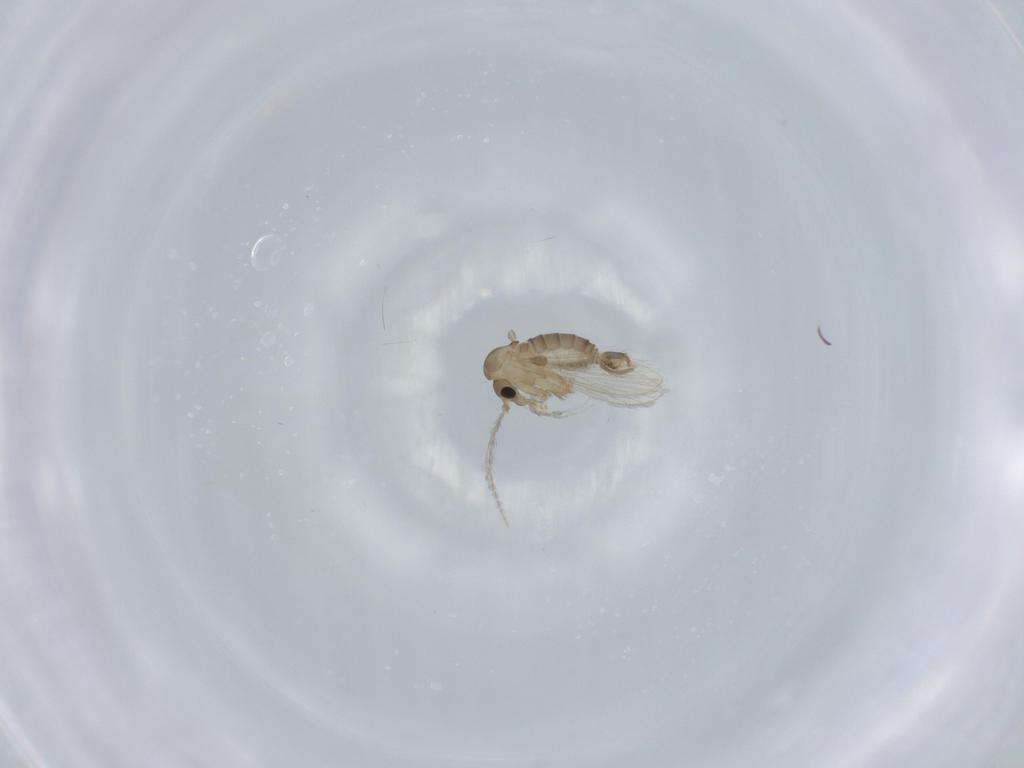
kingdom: Animalia
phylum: Arthropoda
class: Insecta
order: Diptera
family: Psychodidae
